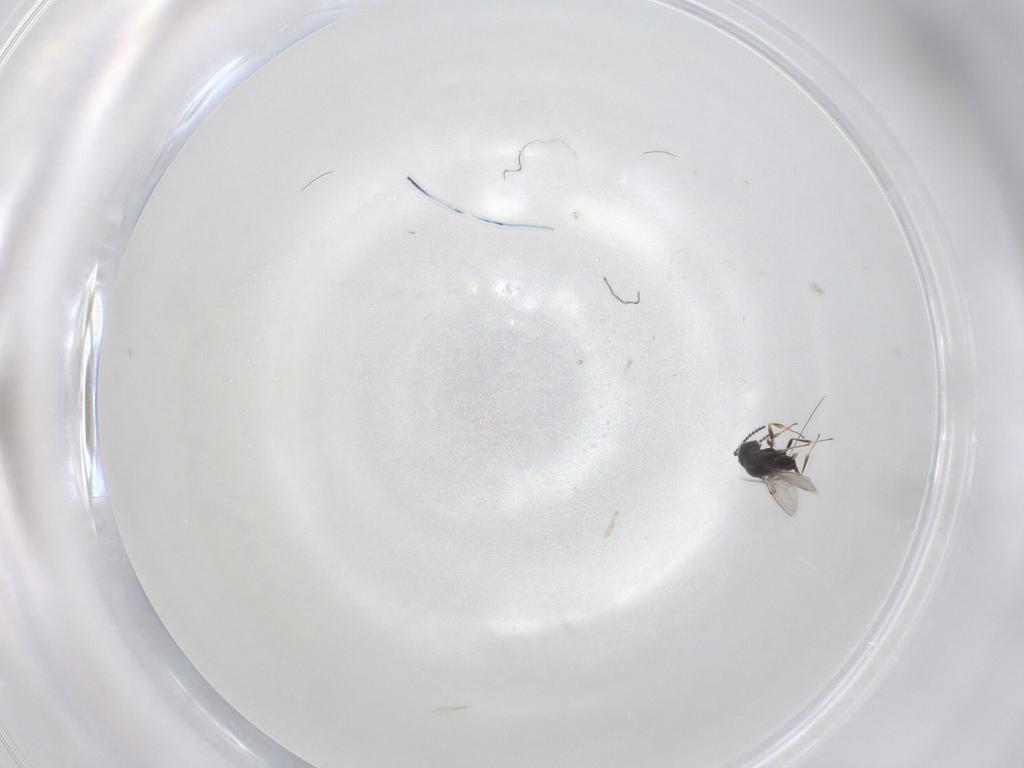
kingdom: Animalia
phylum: Arthropoda
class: Insecta
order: Hymenoptera
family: Scelionidae
